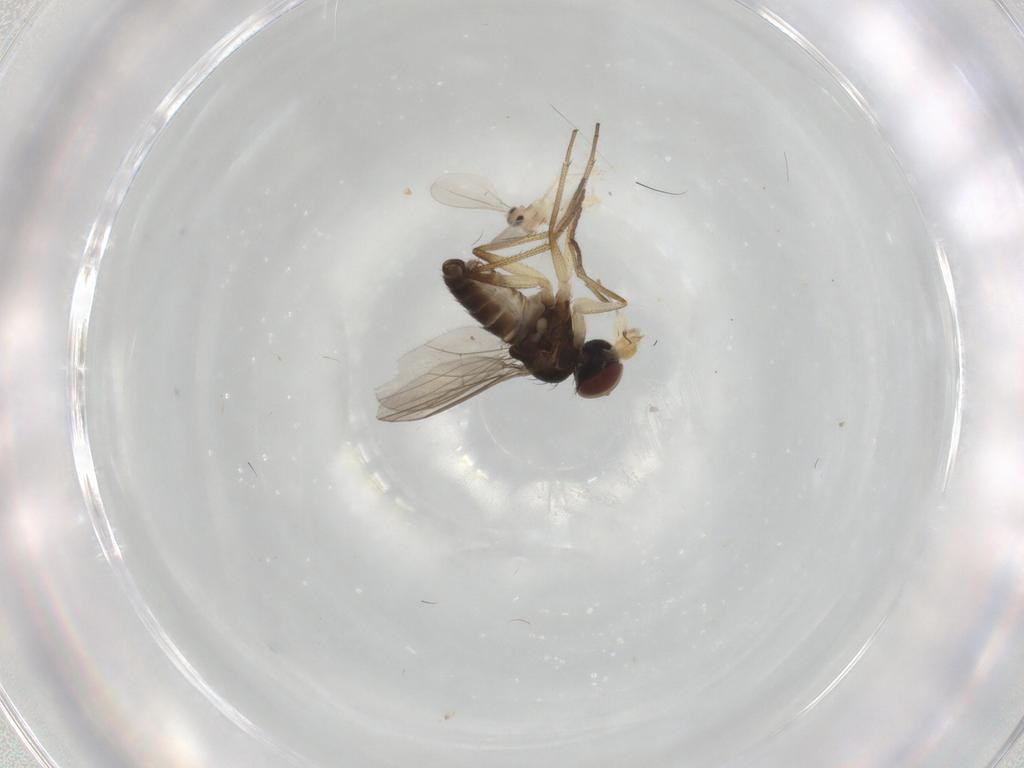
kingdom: Animalia
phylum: Arthropoda
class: Insecta
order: Diptera
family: Dolichopodidae
